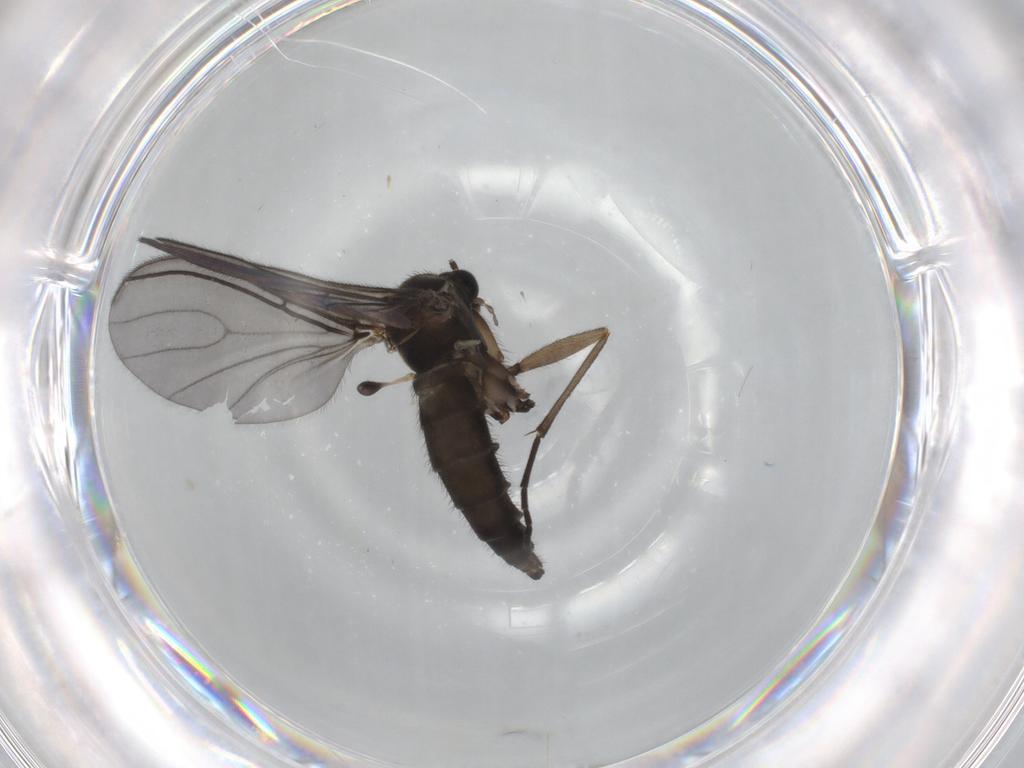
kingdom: Animalia
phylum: Arthropoda
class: Insecta
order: Diptera
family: Sciaridae
